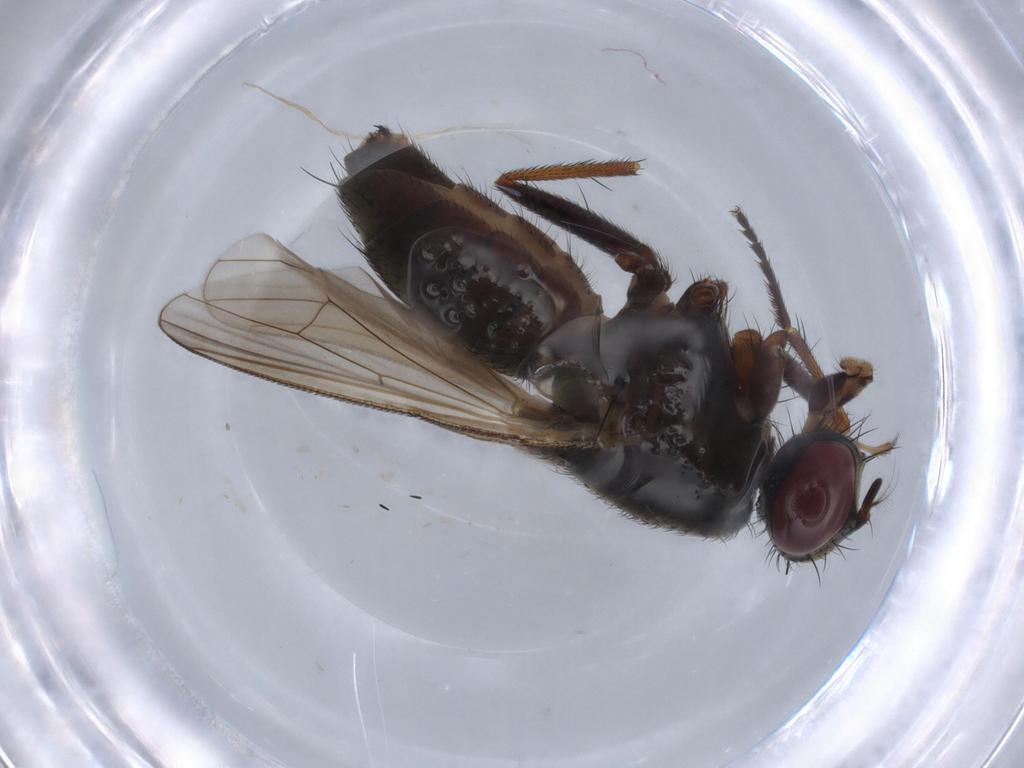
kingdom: Animalia
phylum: Arthropoda
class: Insecta
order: Diptera
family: Muscidae
